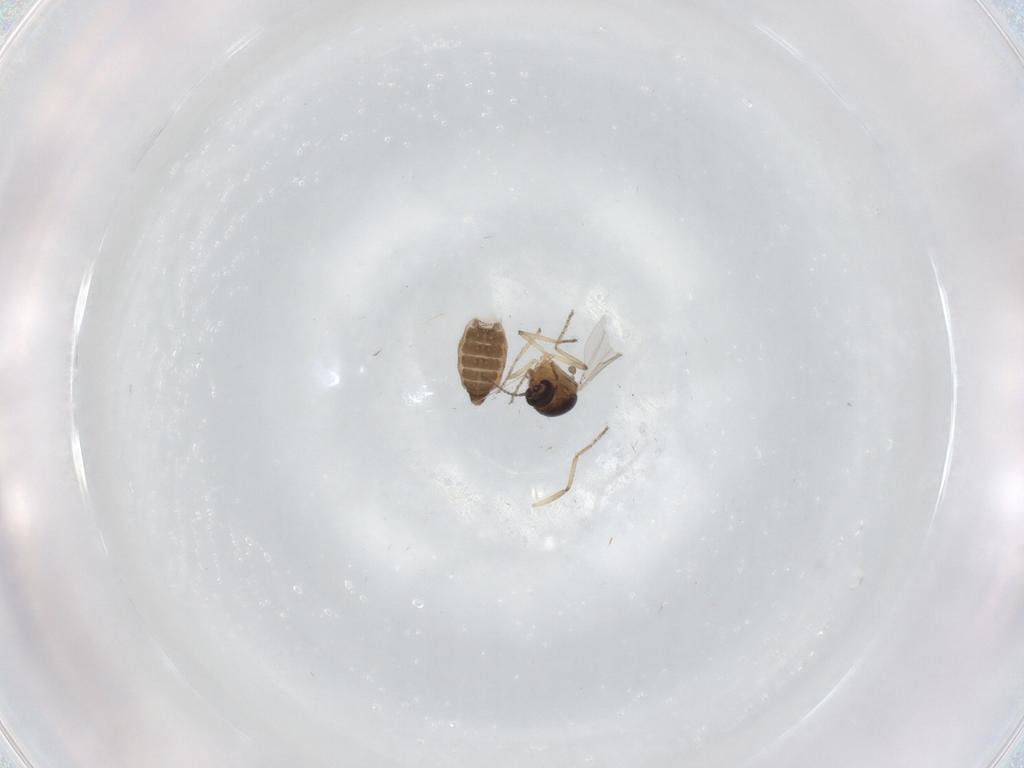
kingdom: Animalia
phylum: Arthropoda
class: Insecta
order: Diptera
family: Ceratopogonidae
